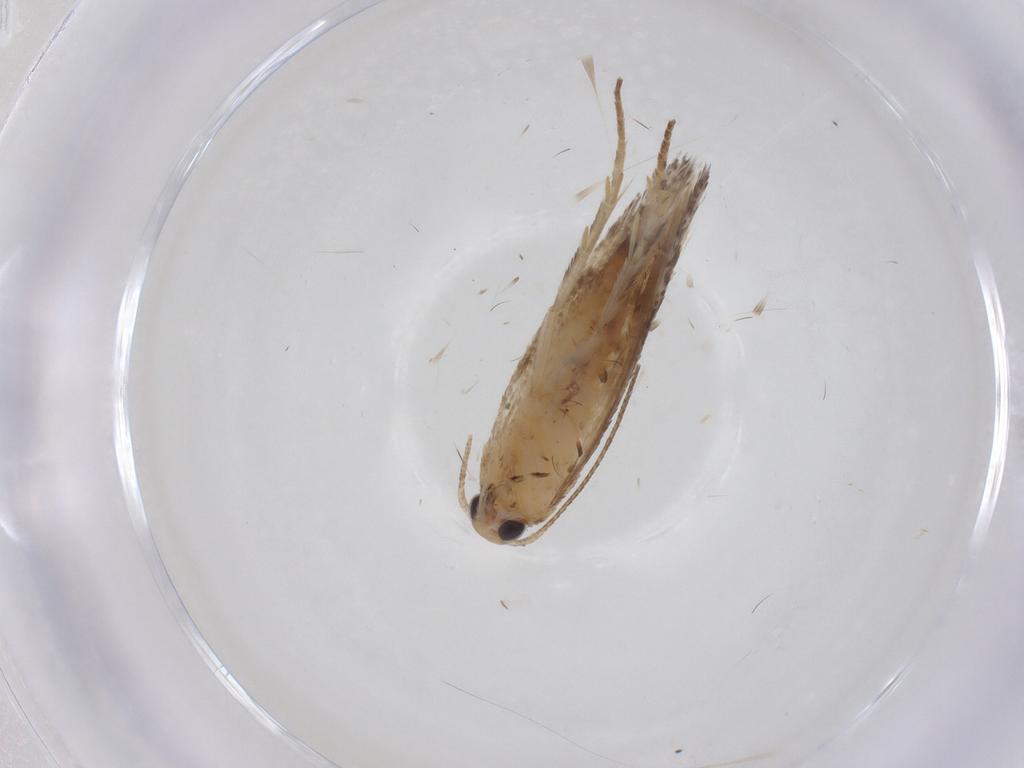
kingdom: Animalia
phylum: Arthropoda
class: Insecta
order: Lepidoptera
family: Gelechiidae
